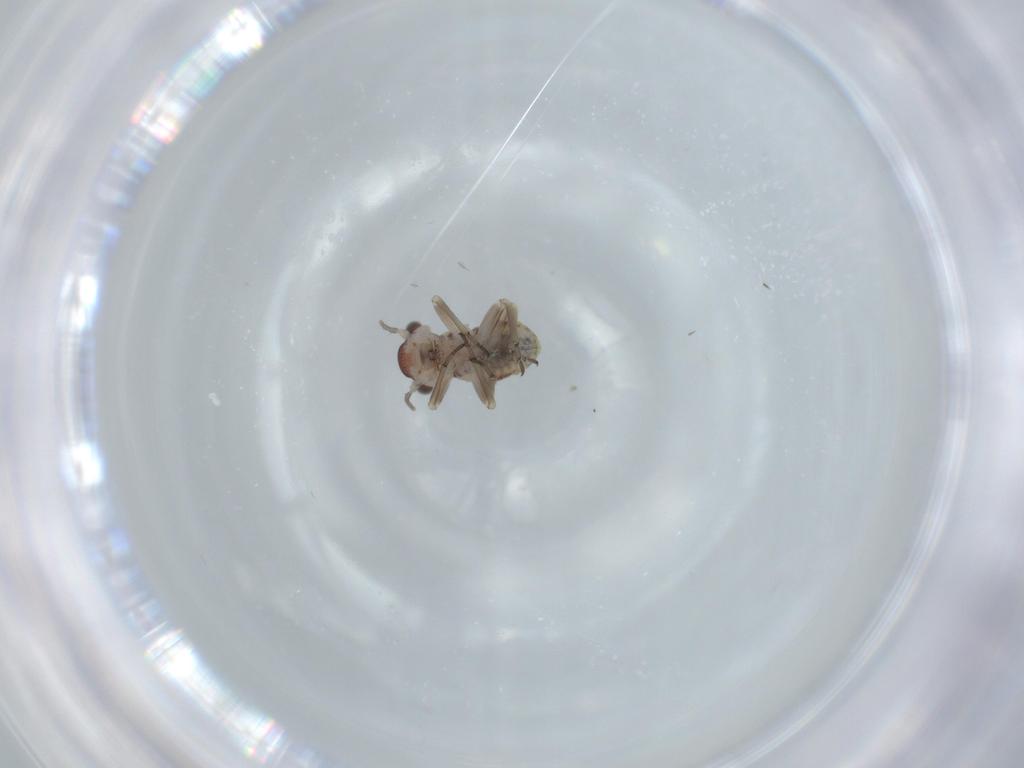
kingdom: Animalia
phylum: Arthropoda
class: Insecta
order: Psocodea
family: Liposcelididae
